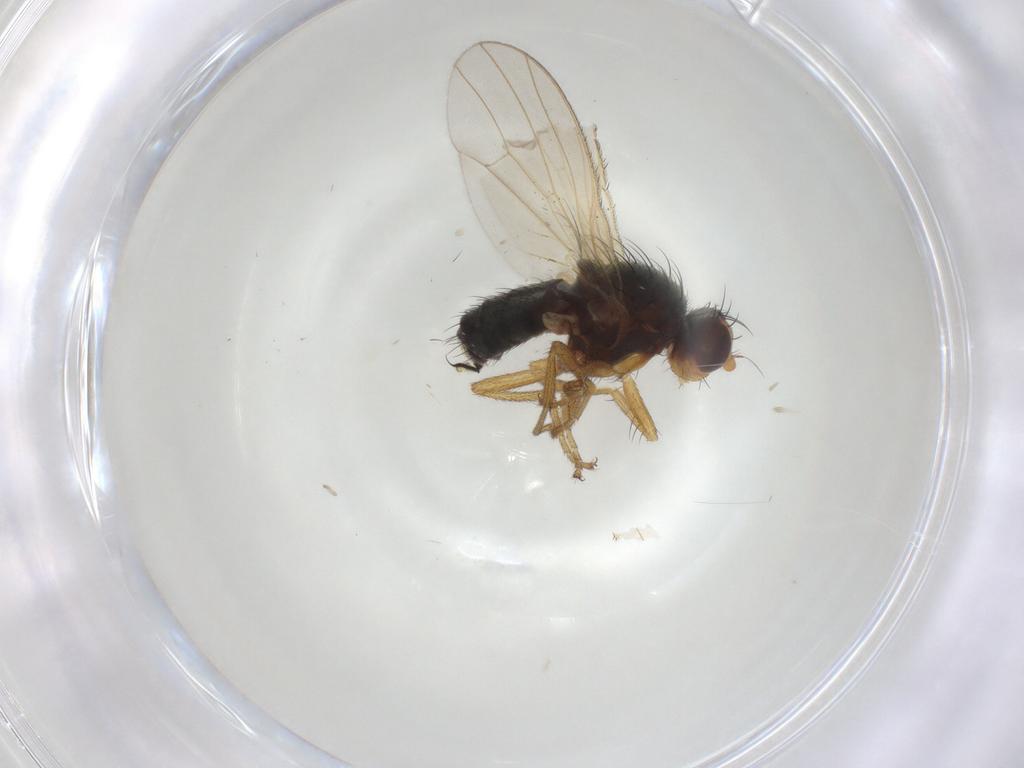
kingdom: Animalia
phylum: Arthropoda
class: Insecta
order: Diptera
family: Heleomyzidae
